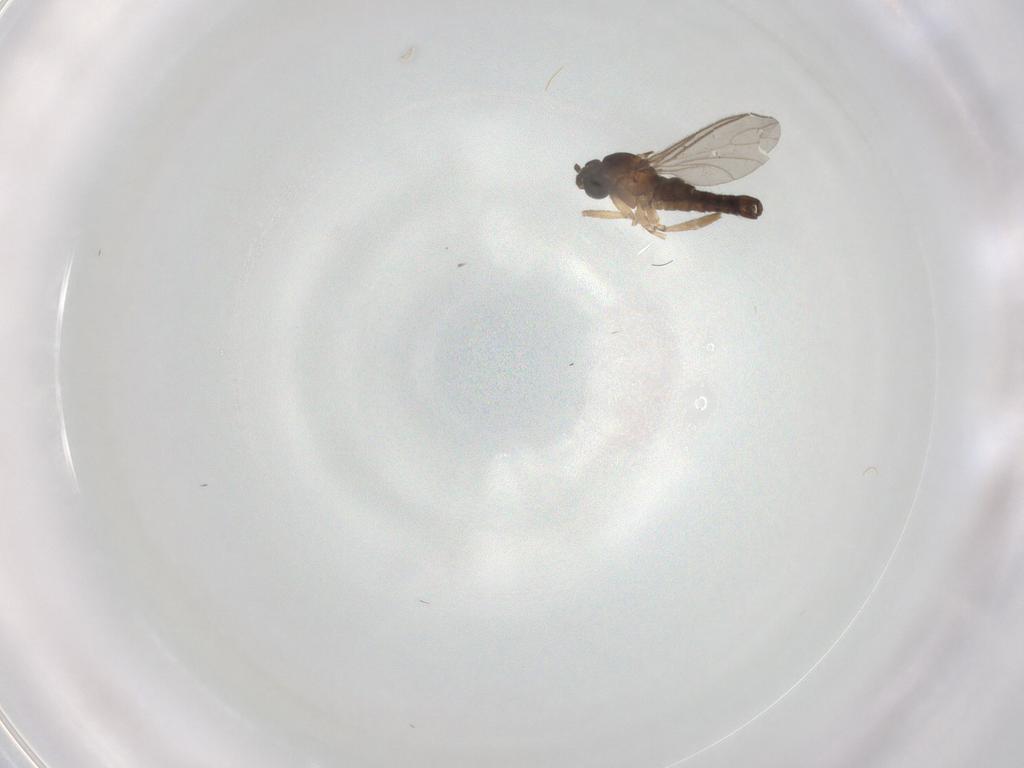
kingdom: Animalia
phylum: Arthropoda
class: Insecta
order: Diptera
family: Sciaridae
